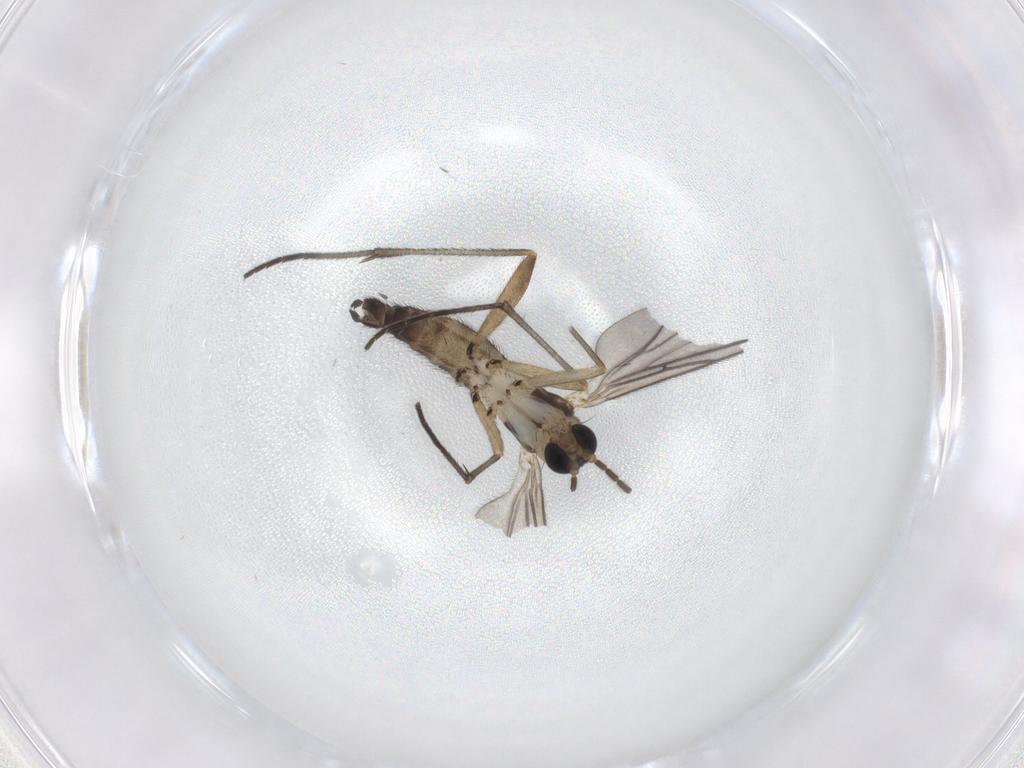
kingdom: Animalia
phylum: Arthropoda
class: Insecta
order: Diptera
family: Sciaridae
